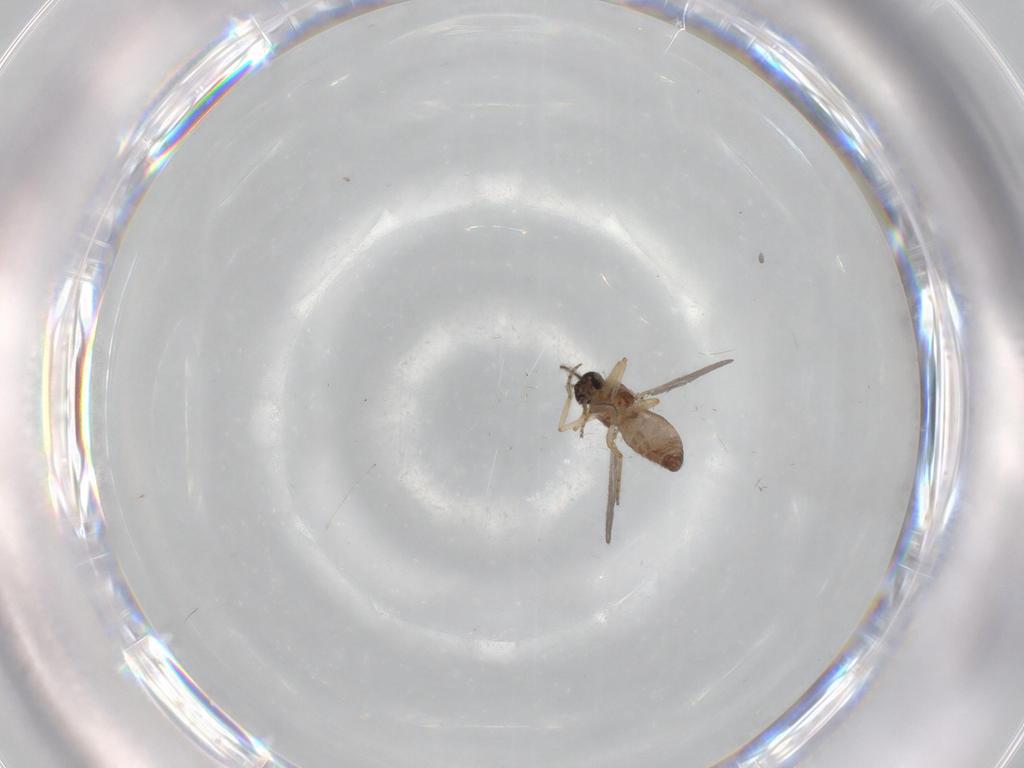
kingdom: Animalia
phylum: Arthropoda
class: Insecta
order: Diptera
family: Ceratopogonidae
